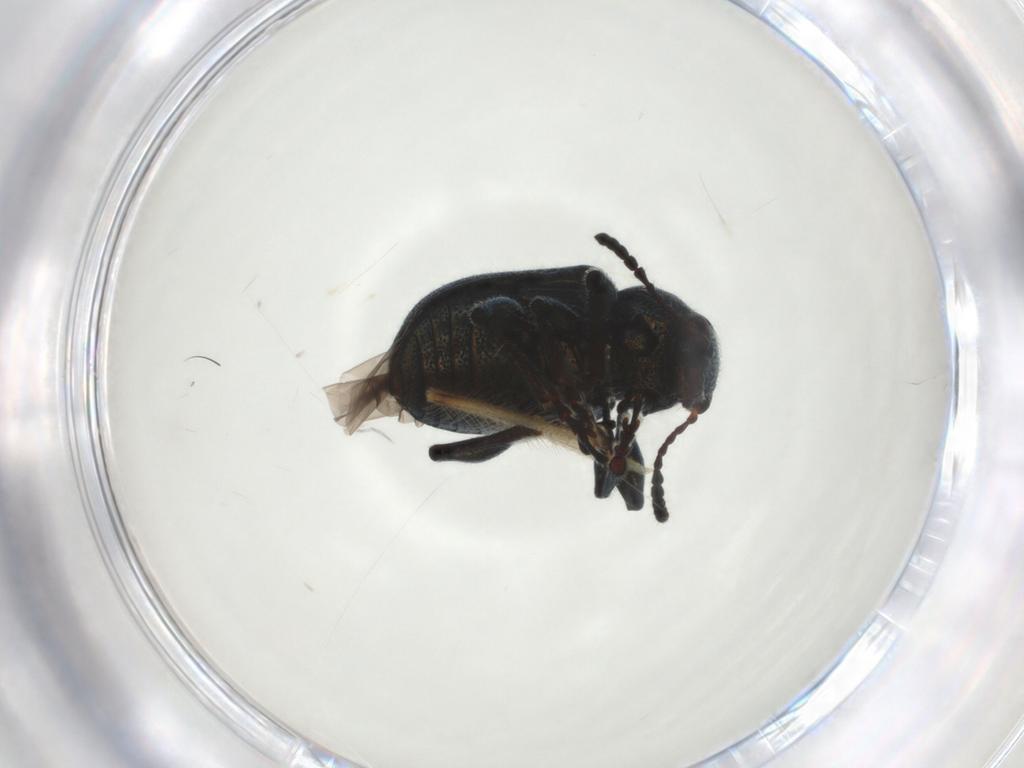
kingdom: Animalia
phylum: Arthropoda
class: Insecta
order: Coleoptera
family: Chrysomelidae
